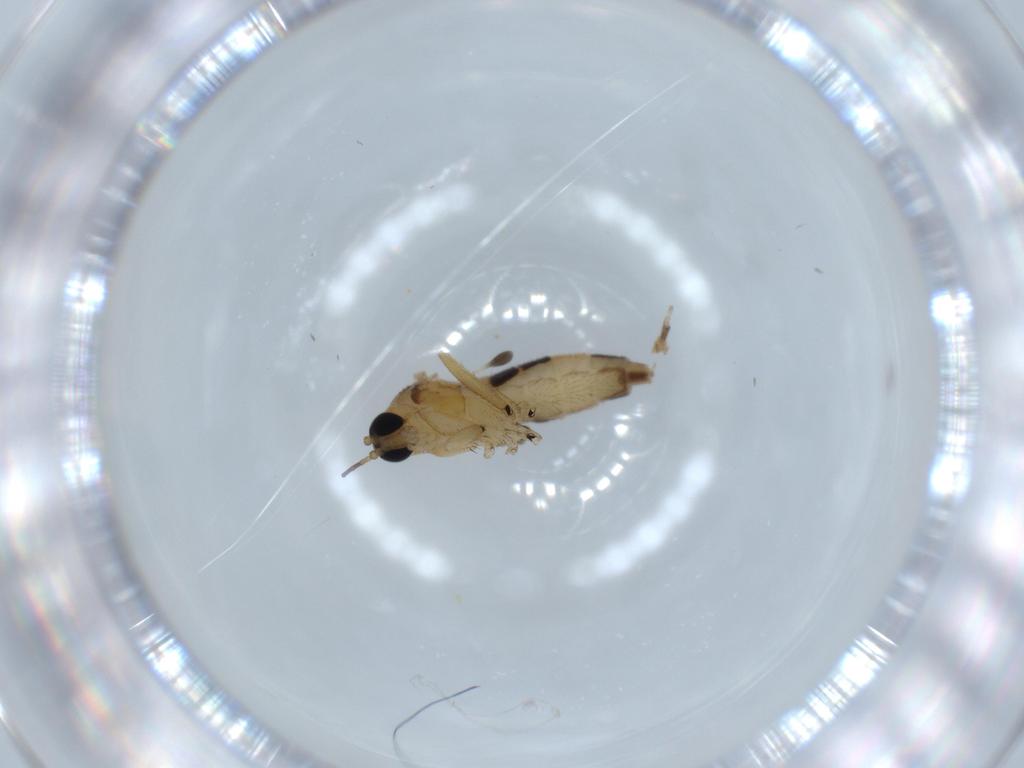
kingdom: Animalia
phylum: Arthropoda
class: Insecta
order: Diptera
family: Sciaridae
